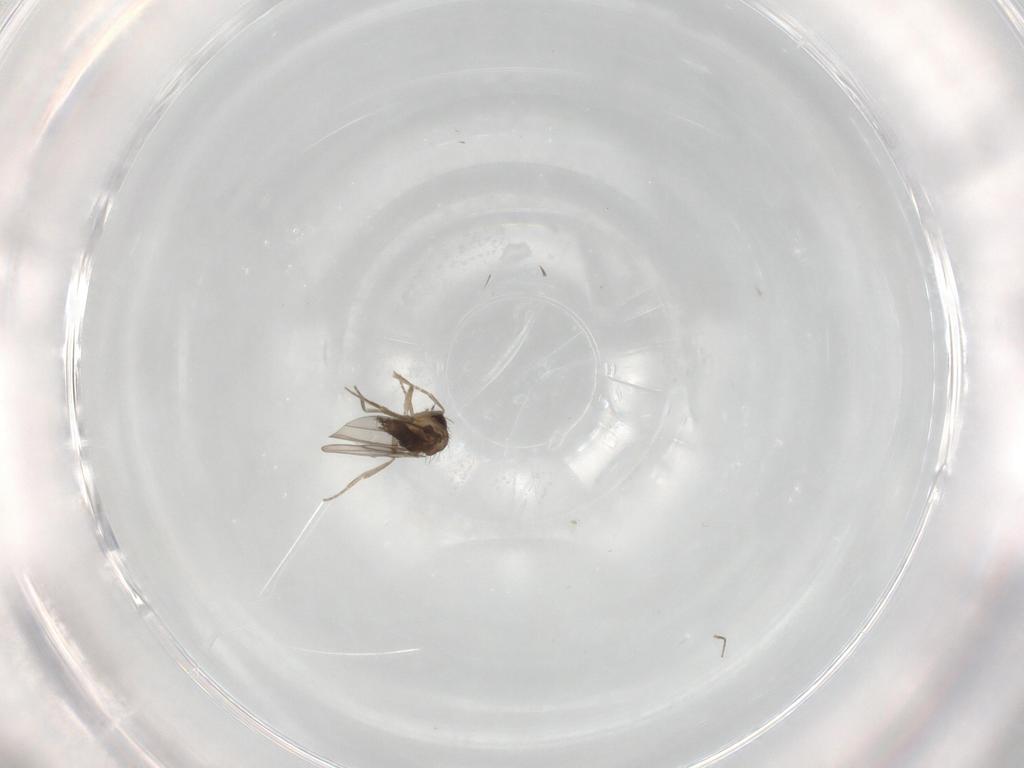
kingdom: Animalia
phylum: Arthropoda
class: Insecta
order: Diptera
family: Phoridae
